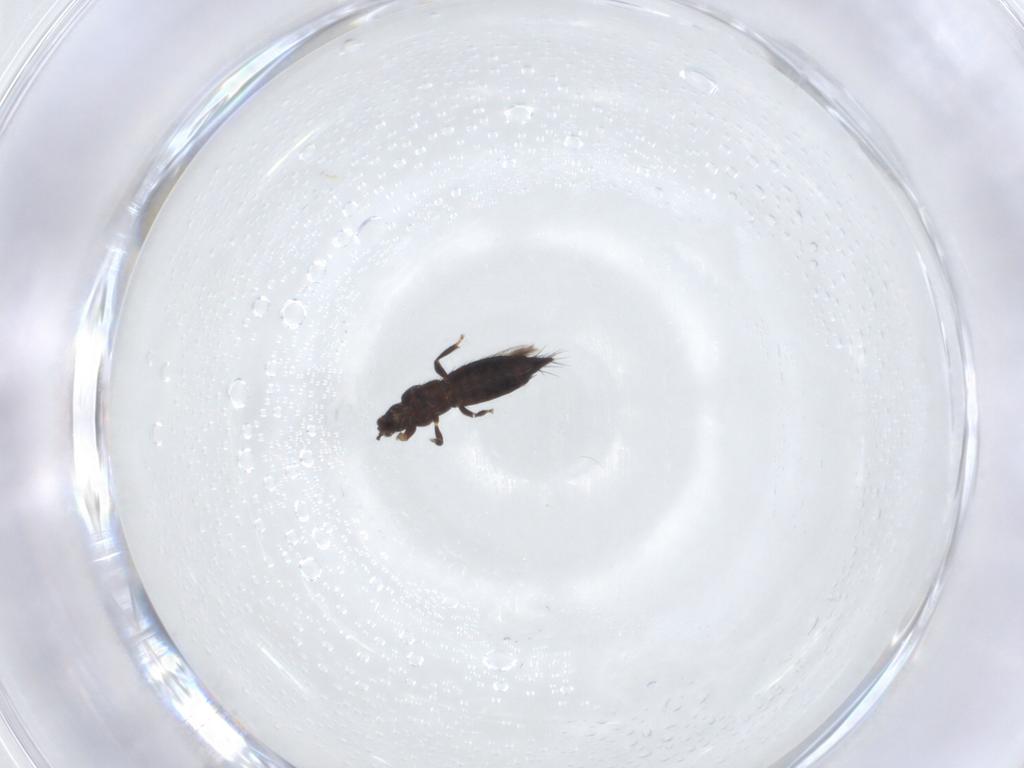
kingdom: Animalia
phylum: Arthropoda
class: Insecta
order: Thysanoptera
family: Thripidae
